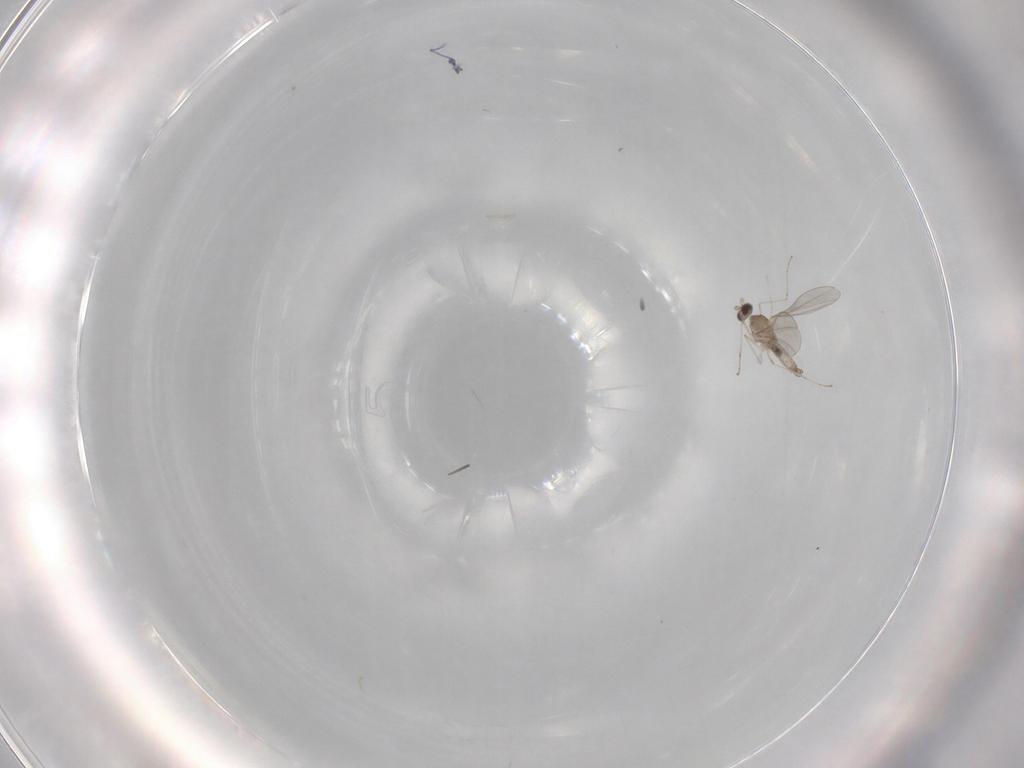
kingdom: Animalia
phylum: Arthropoda
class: Insecta
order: Diptera
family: Cecidomyiidae
